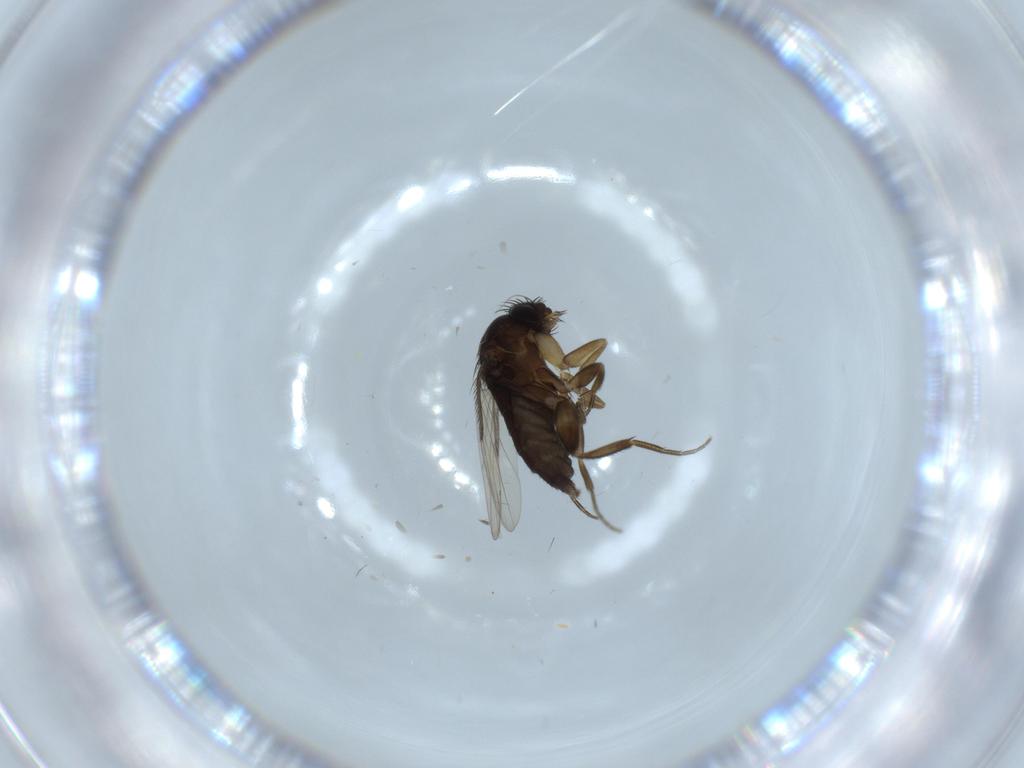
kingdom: Animalia
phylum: Arthropoda
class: Insecta
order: Diptera
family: Phoridae
